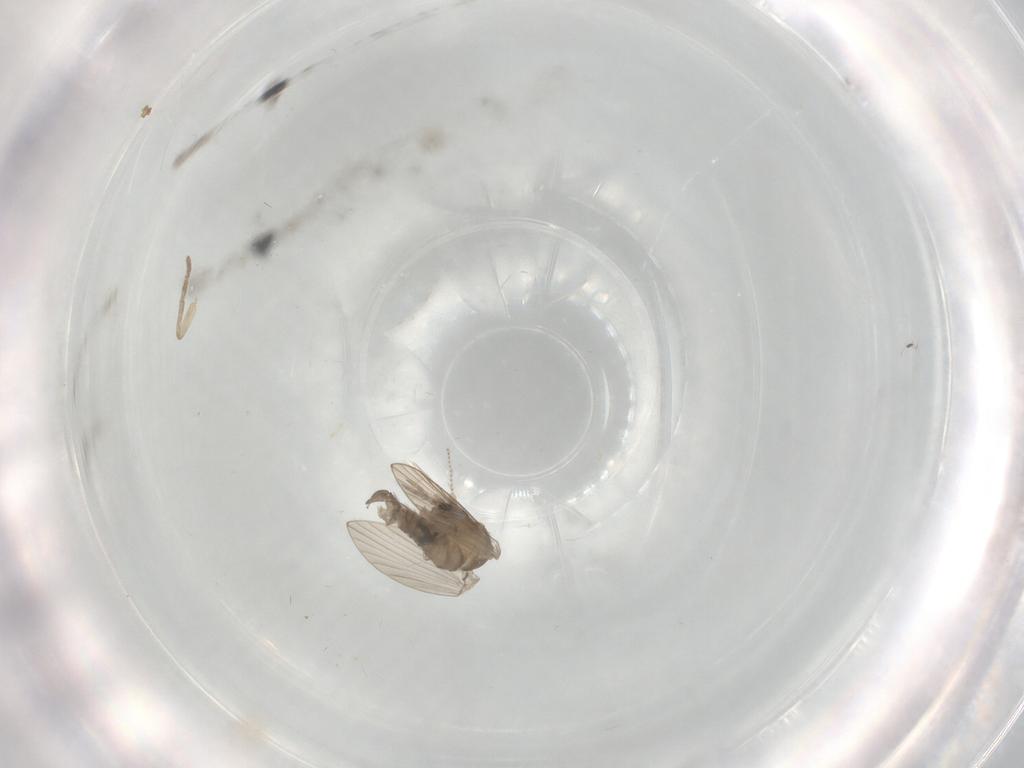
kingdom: Animalia
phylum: Arthropoda
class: Insecta
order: Diptera
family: Psychodidae
